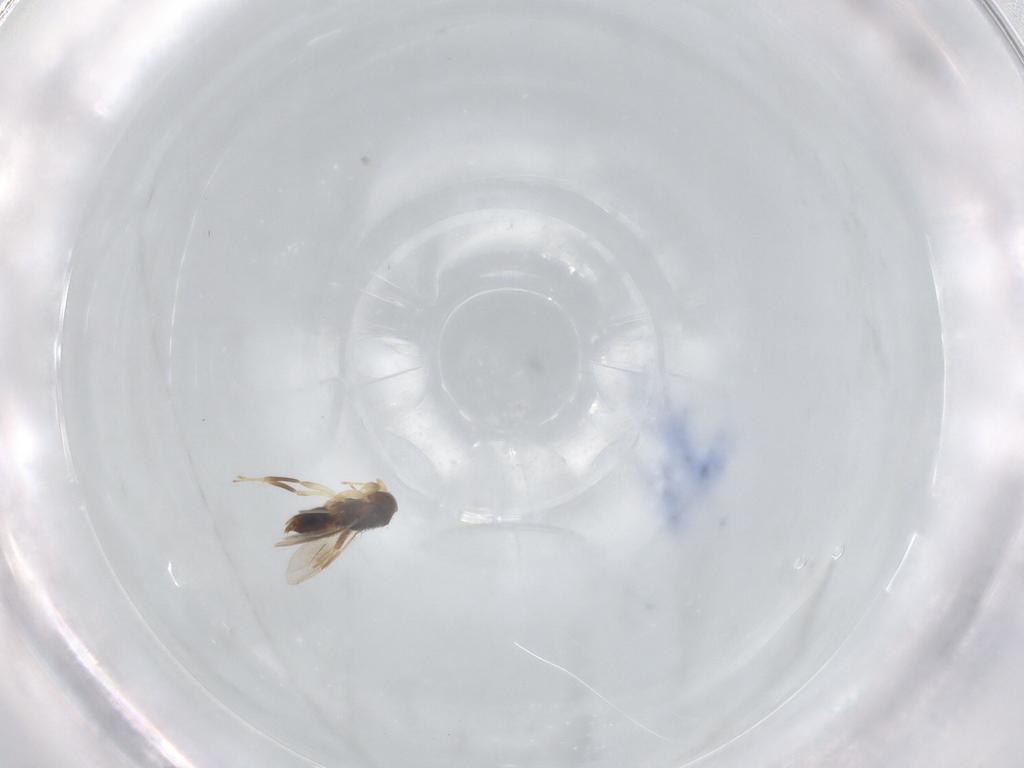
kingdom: Animalia
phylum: Arthropoda
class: Insecta
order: Hymenoptera
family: Aphelinidae
